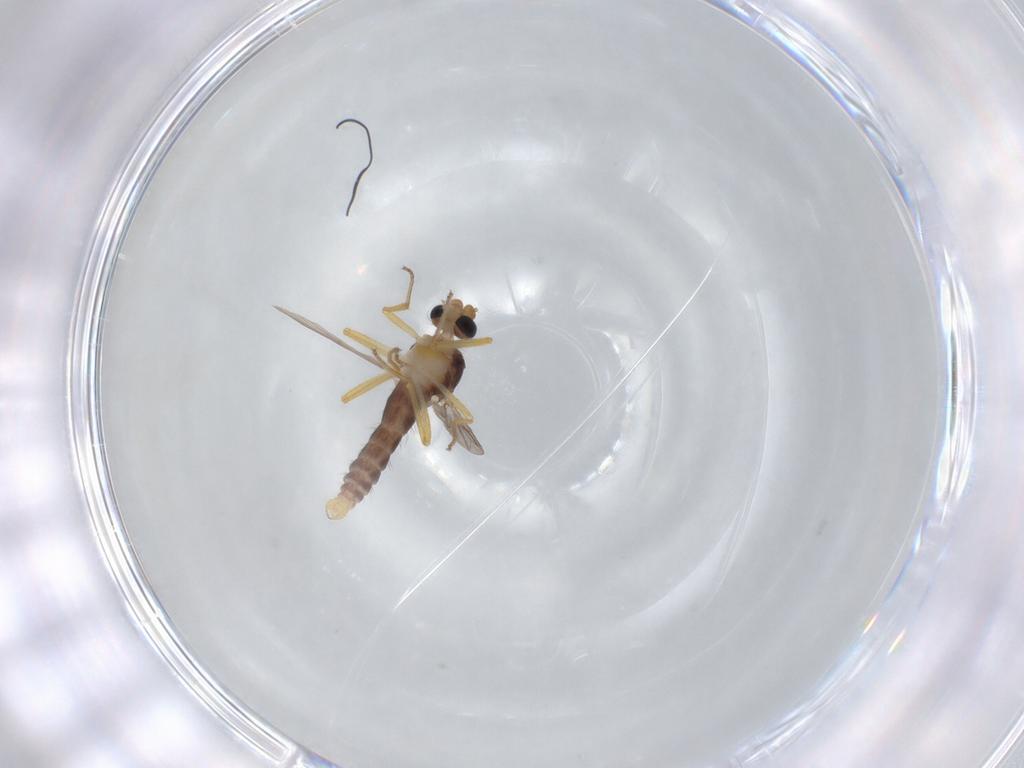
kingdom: Animalia
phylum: Arthropoda
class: Insecta
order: Diptera
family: Ceratopogonidae
